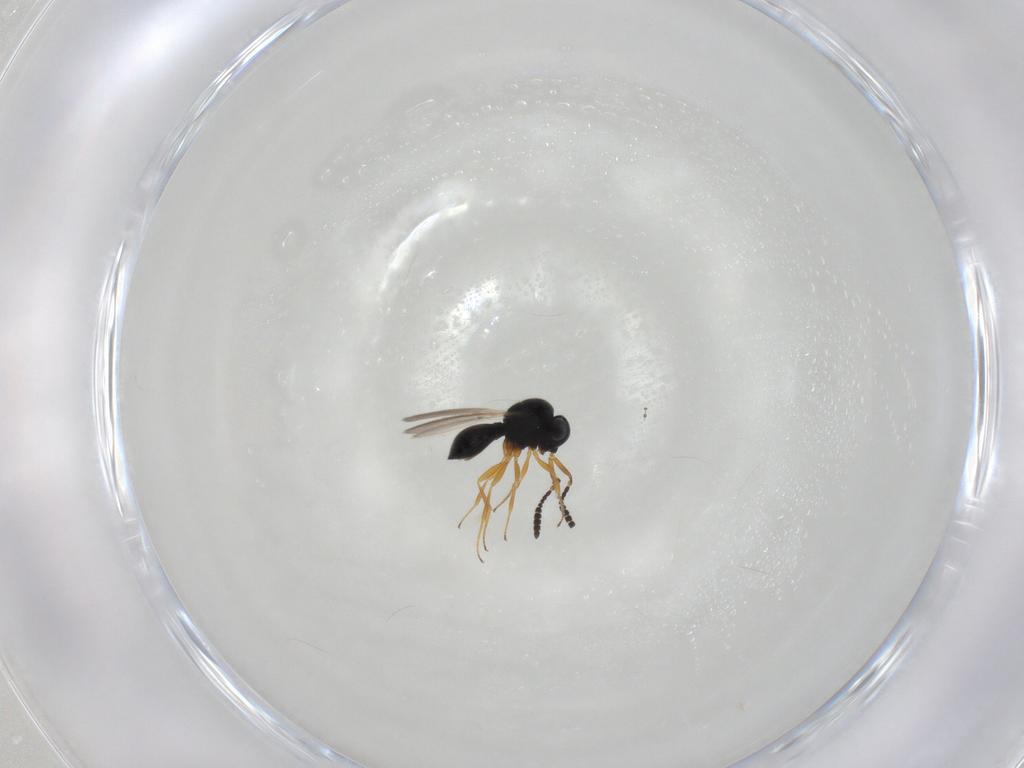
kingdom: Animalia
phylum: Arthropoda
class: Insecta
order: Hymenoptera
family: Scelionidae
